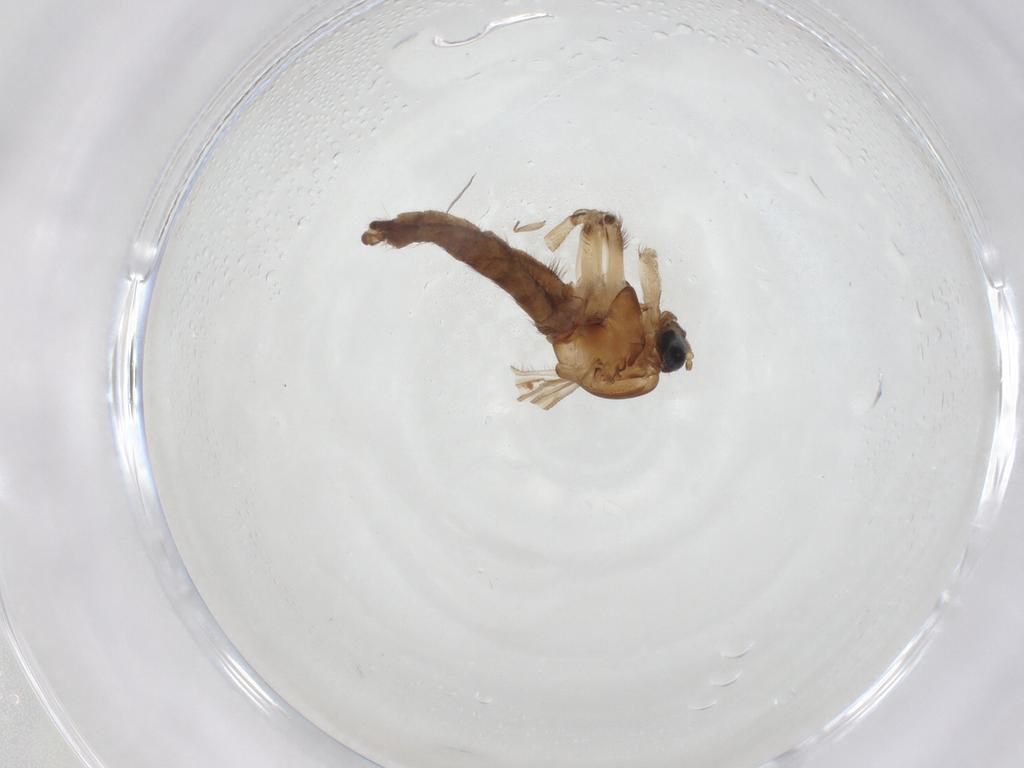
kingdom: Animalia
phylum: Arthropoda
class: Insecta
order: Diptera
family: Sciaridae
